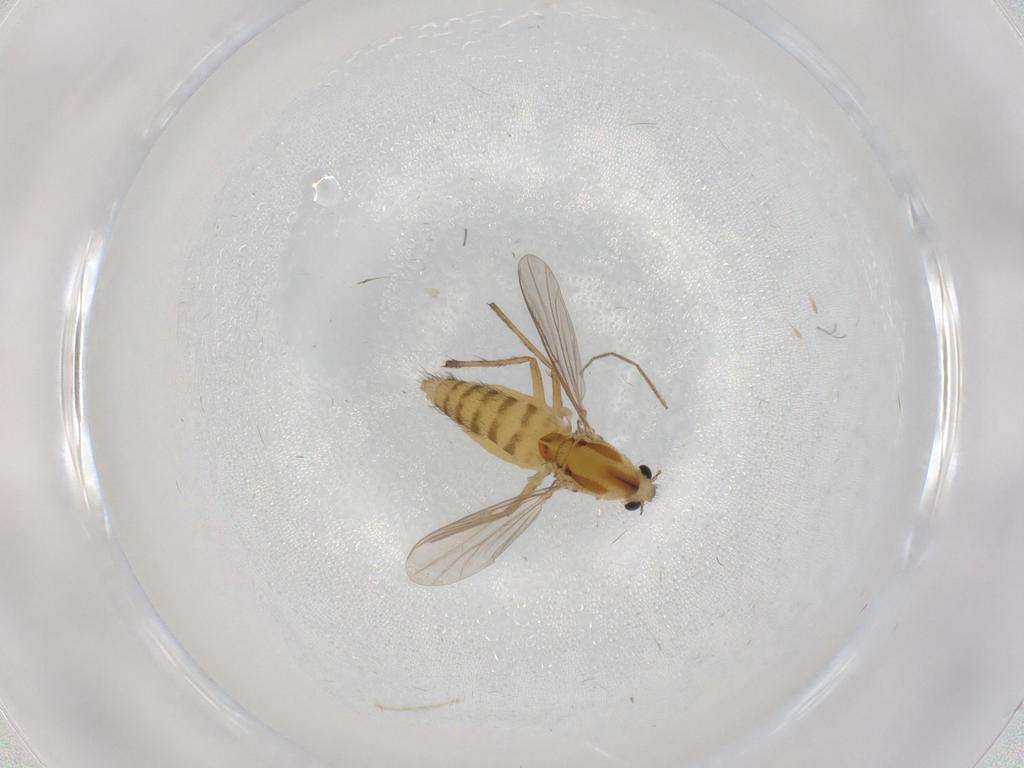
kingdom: Animalia
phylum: Arthropoda
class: Insecta
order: Diptera
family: Chironomidae
